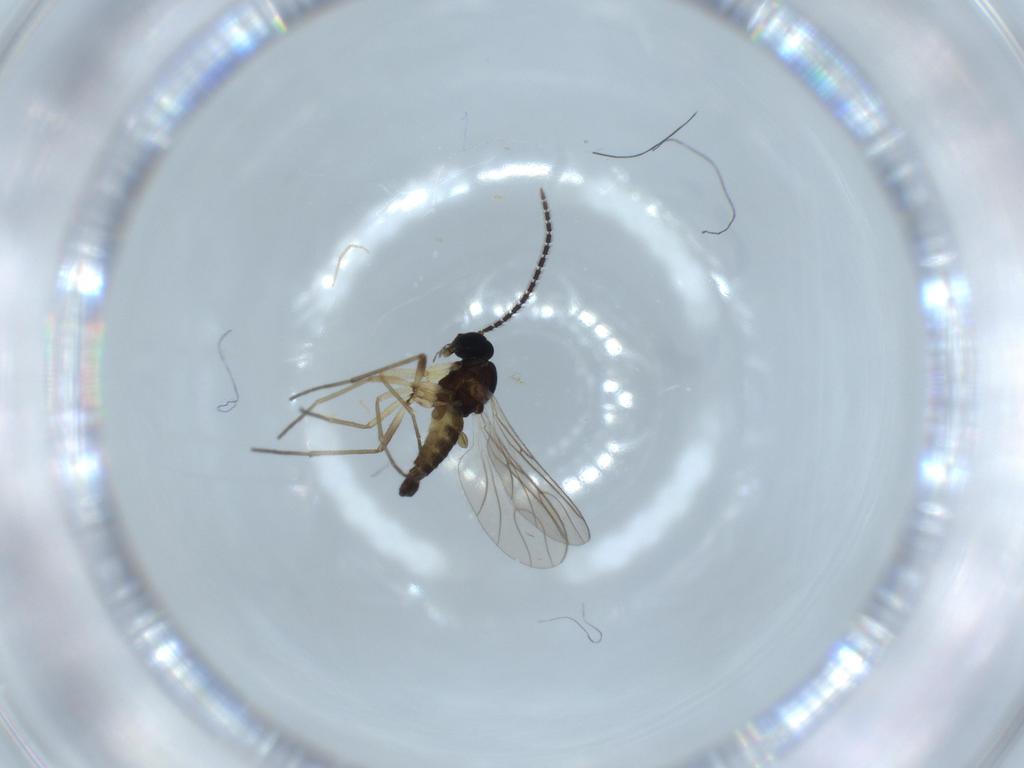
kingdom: Animalia
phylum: Arthropoda
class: Insecta
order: Diptera
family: Sciaridae
